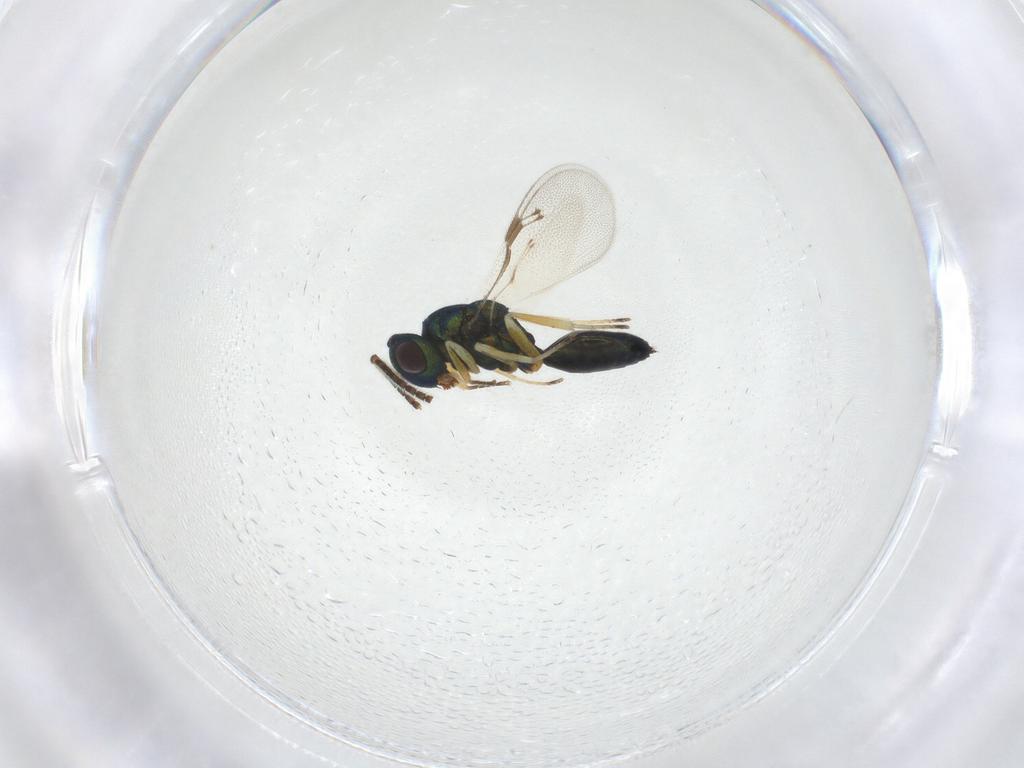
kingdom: Animalia
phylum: Arthropoda
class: Insecta
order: Hymenoptera
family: Pteromalidae
